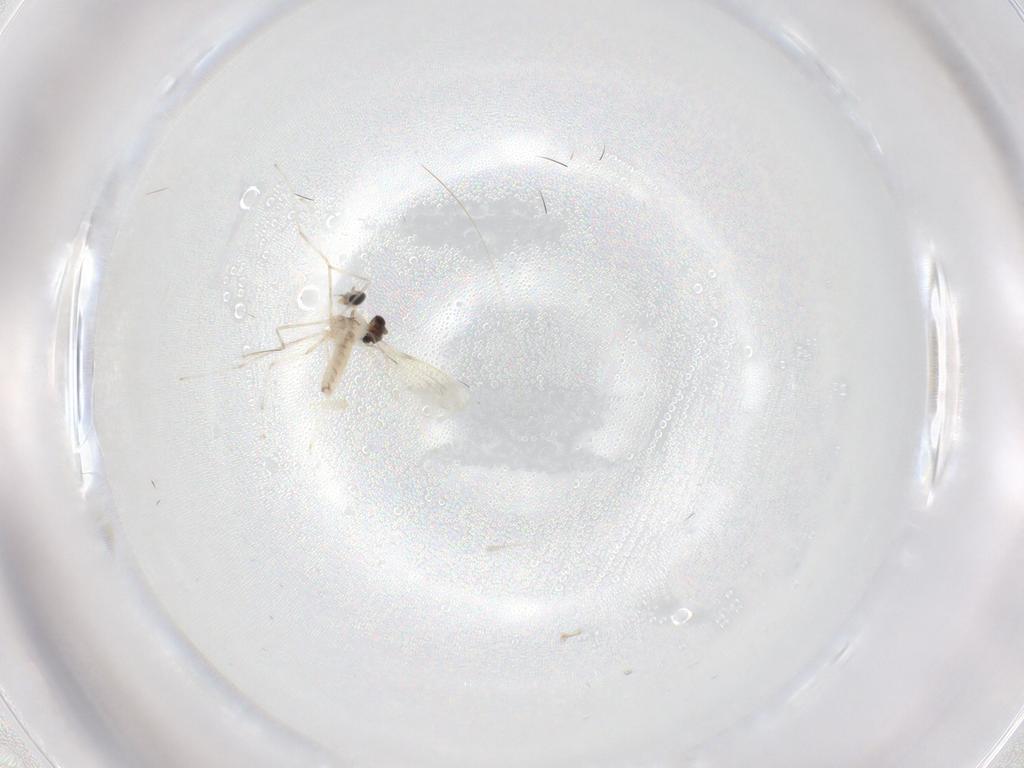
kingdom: Animalia
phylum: Arthropoda
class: Insecta
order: Diptera
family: Cecidomyiidae
